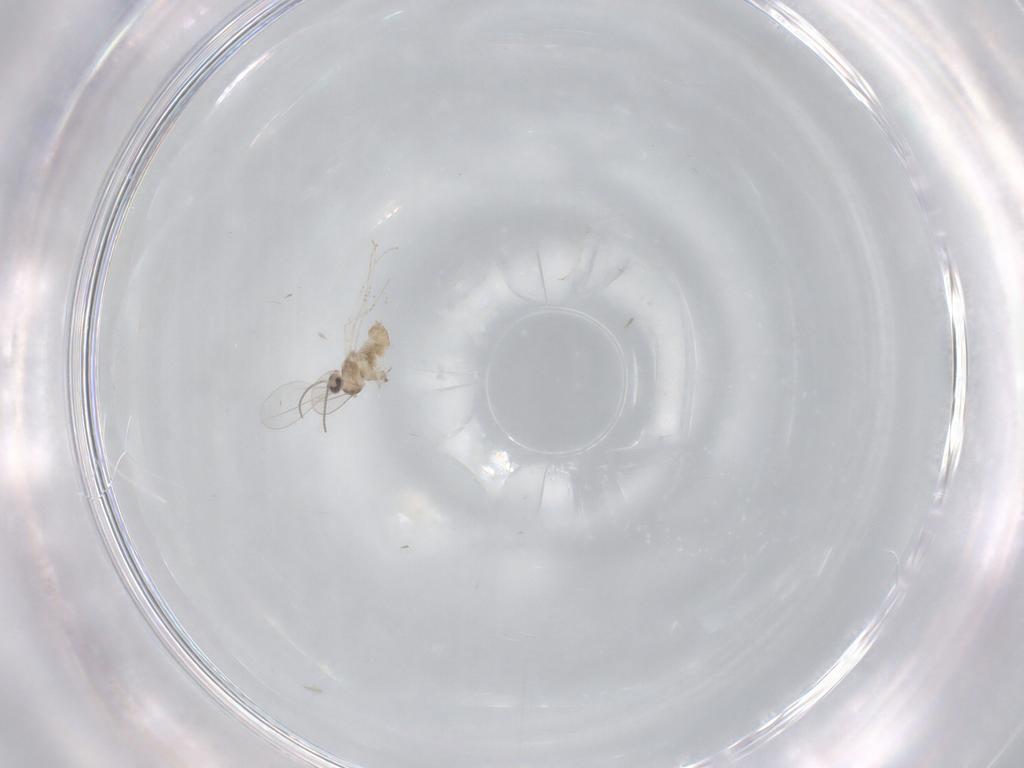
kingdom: Animalia
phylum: Arthropoda
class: Insecta
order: Diptera
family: Cecidomyiidae
